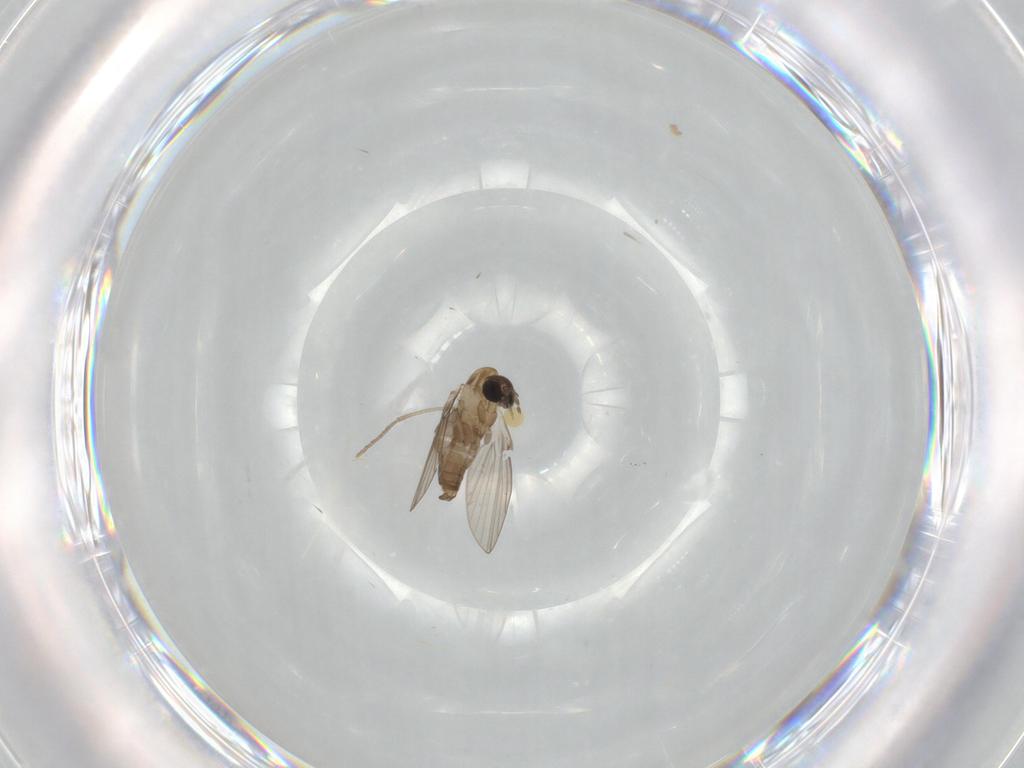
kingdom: Animalia
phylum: Arthropoda
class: Insecta
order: Diptera
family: Psychodidae
